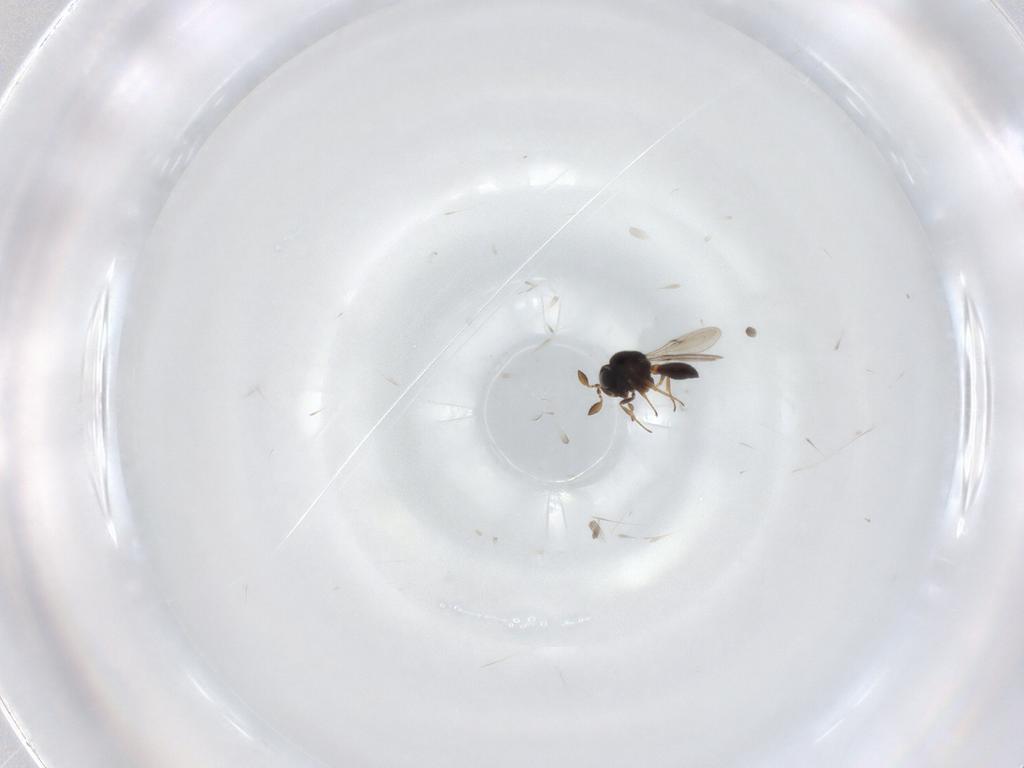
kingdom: Animalia
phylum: Arthropoda
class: Insecta
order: Hymenoptera
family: Scelionidae
